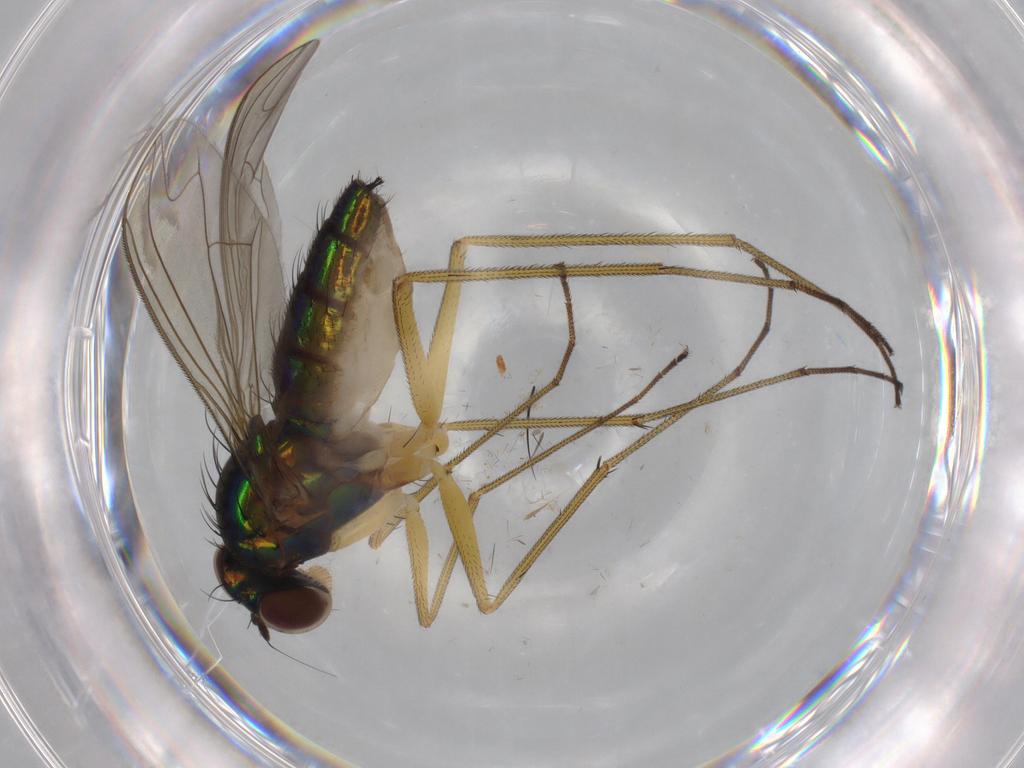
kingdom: Animalia
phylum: Arthropoda
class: Insecta
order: Diptera
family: Dolichopodidae
